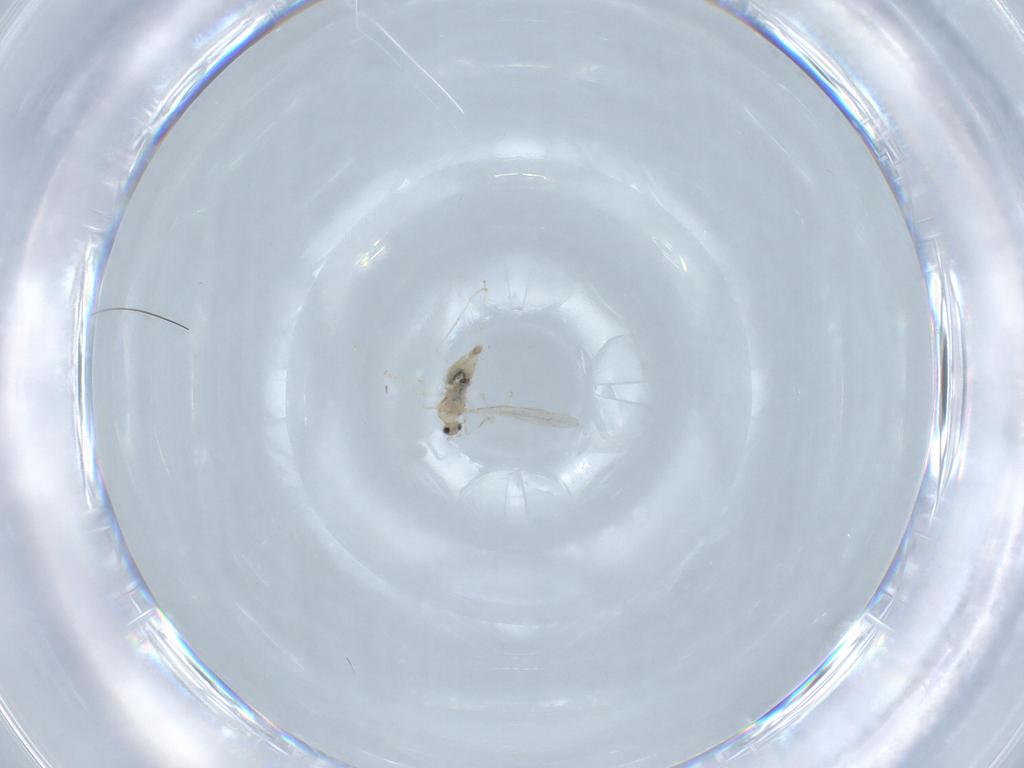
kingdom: Animalia
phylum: Arthropoda
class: Insecta
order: Diptera
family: Cecidomyiidae
